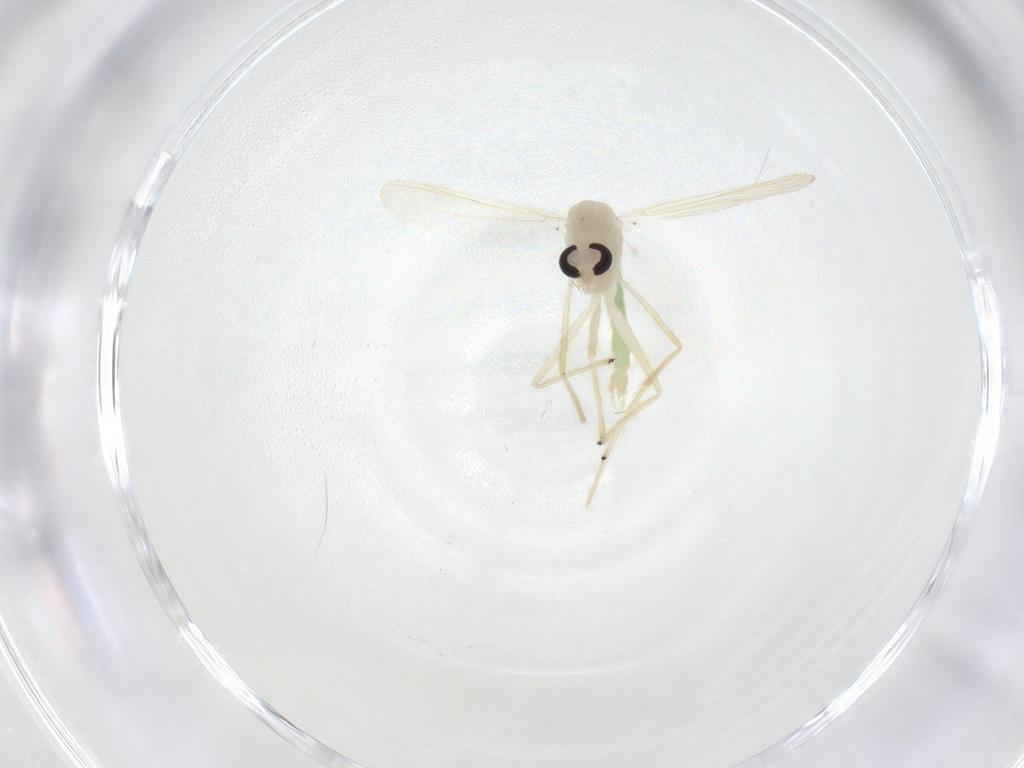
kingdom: Animalia
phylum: Arthropoda
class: Insecta
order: Diptera
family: Chironomidae
